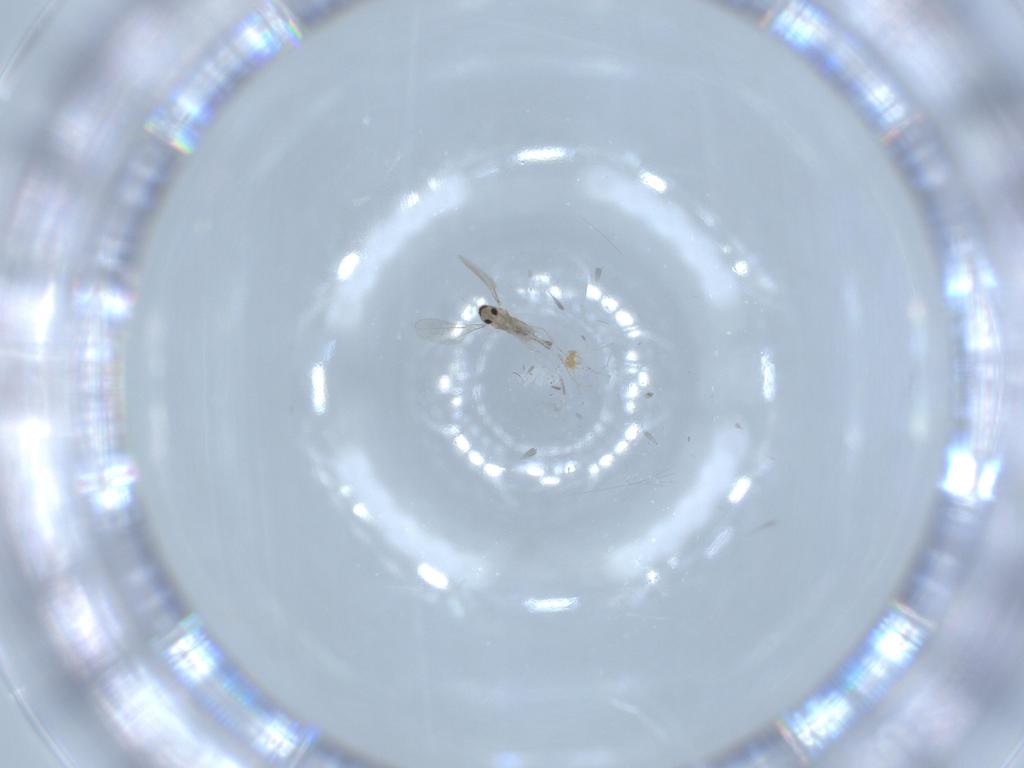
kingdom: Animalia
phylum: Arthropoda
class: Insecta
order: Diptera
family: Cecidomyiidae
